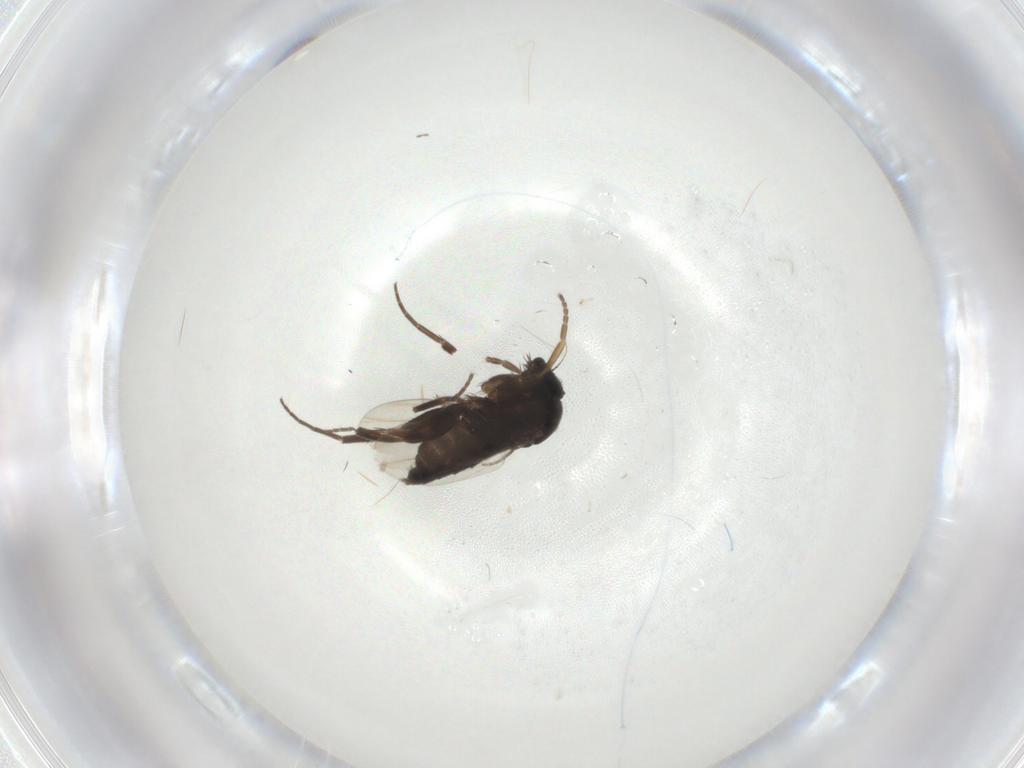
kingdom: Animalia
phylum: Arthropoda
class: Insecta
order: Diptera
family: Phoridae
